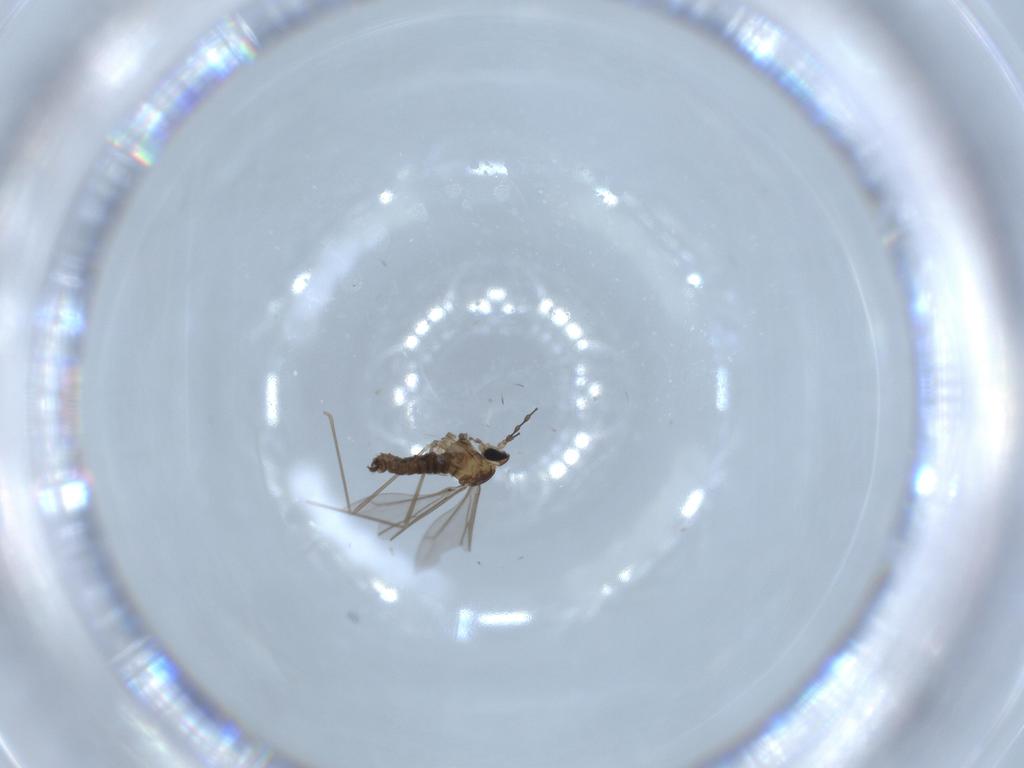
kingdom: Animalia
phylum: Arthropoda
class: Insecta
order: Diptera
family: Cecidomyiidae
